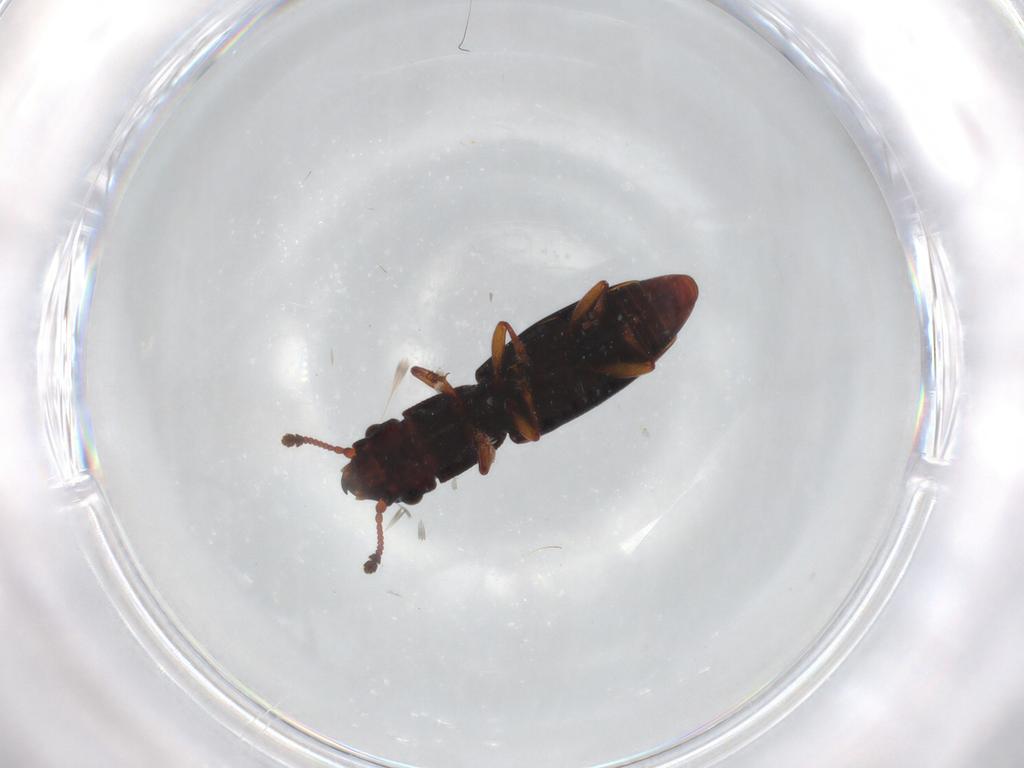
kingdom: Animalia
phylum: Arthropoda
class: Insecta
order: Coleoptera
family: Monotomidae
